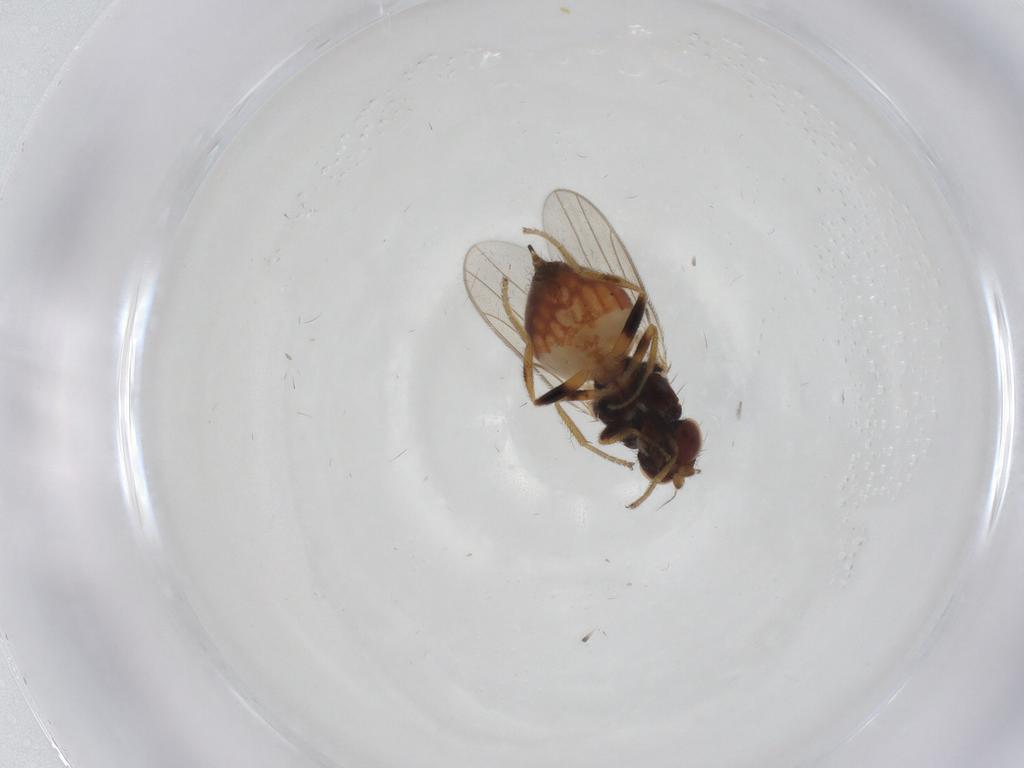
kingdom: Animalia
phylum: Arthropoda
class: Insecta
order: Diptera
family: Chloropidae
